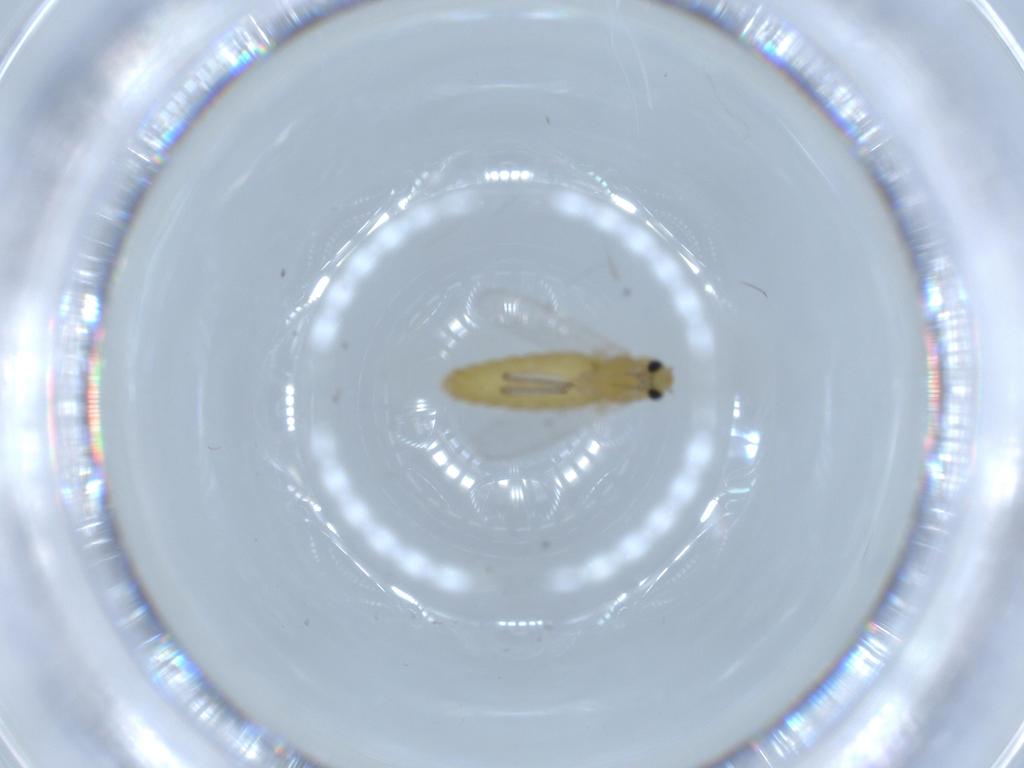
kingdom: Animalia
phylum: Arthropoda
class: Insecta
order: Diptera
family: Chironomidae
